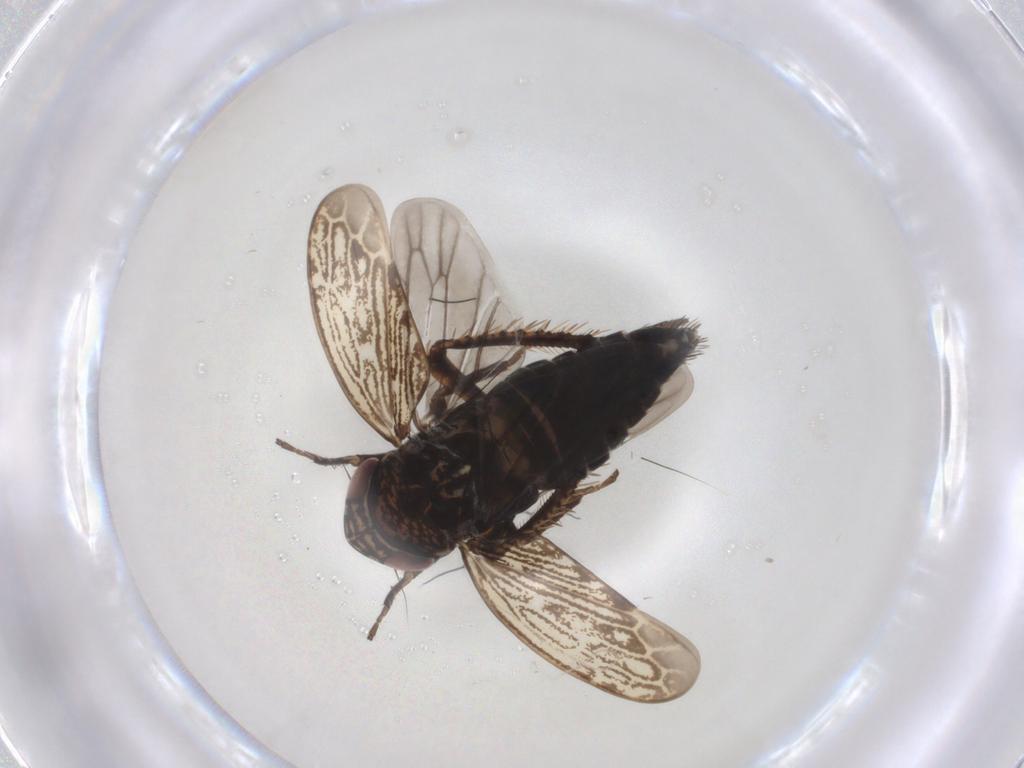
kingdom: Animalia
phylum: Arthropoda
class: Insecta
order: Hemiptera
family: Cicadellidae
